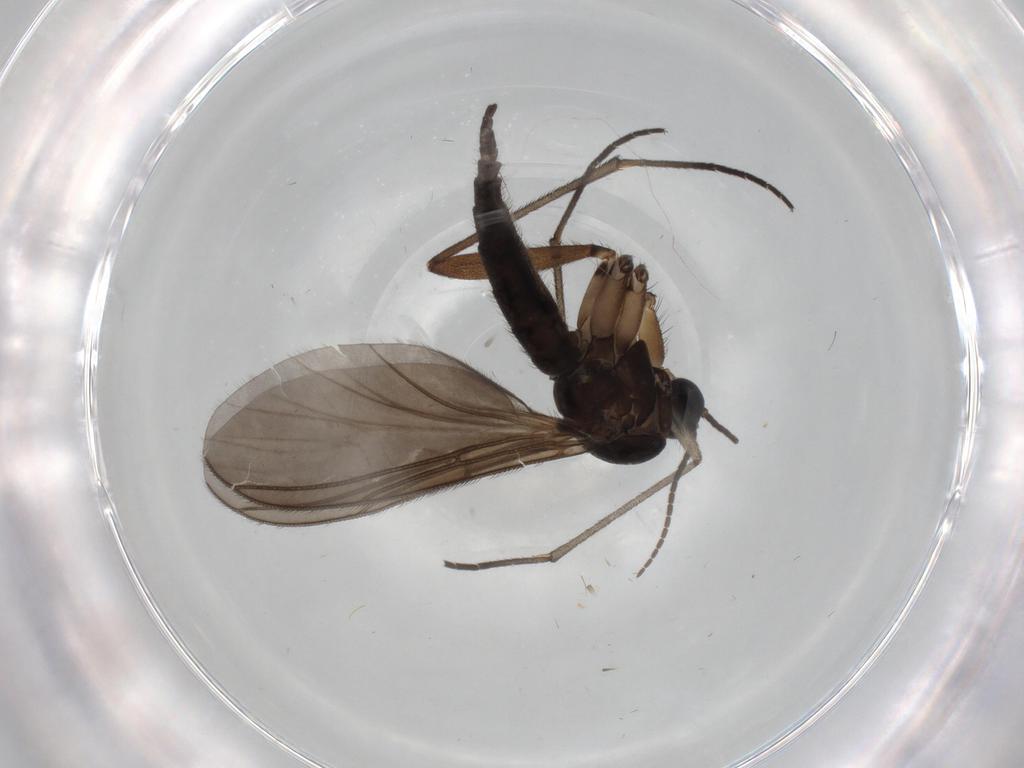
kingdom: Animalia
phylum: Arthropoda
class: Insecta
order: Diptera
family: Sciaridae
